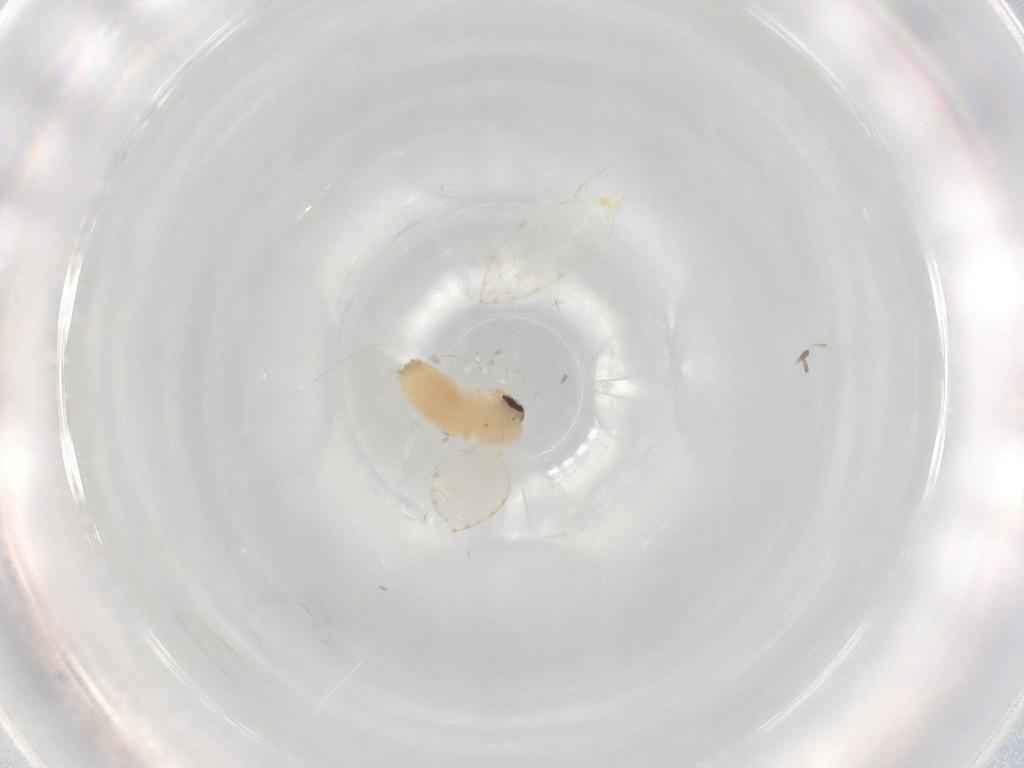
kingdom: Animalia
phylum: Arthropoda
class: Insecta
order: Diptera
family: Psychodidae
